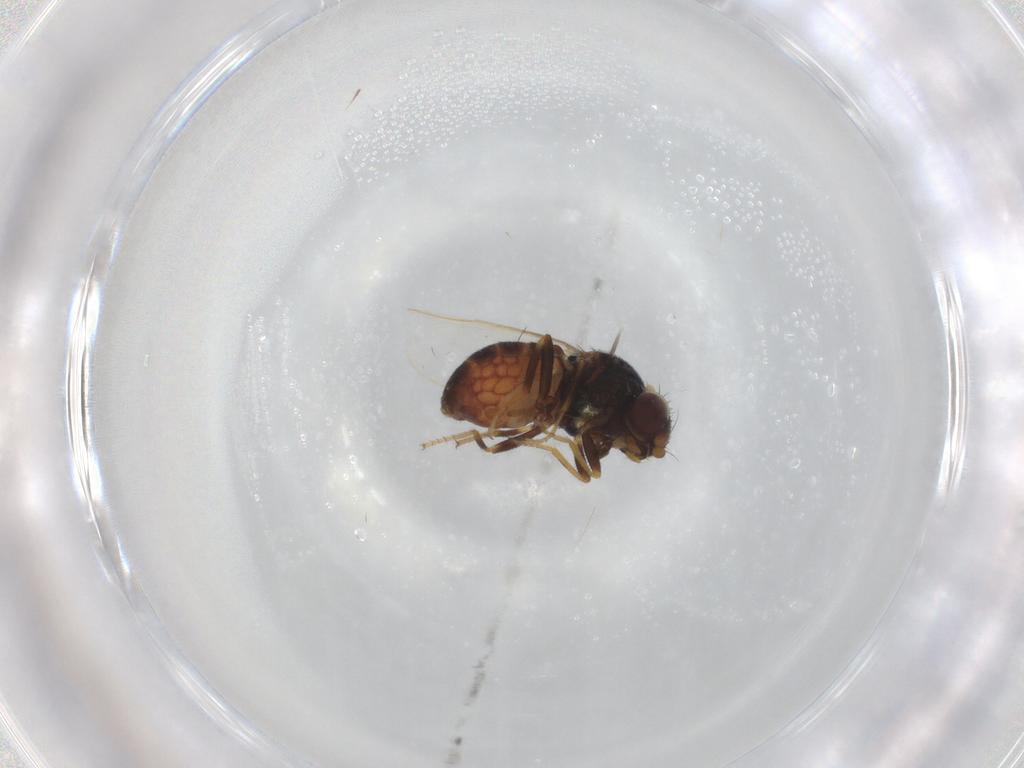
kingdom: Animalia
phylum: Arthropoda
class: Insecta
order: Diptera
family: Chloropidae
